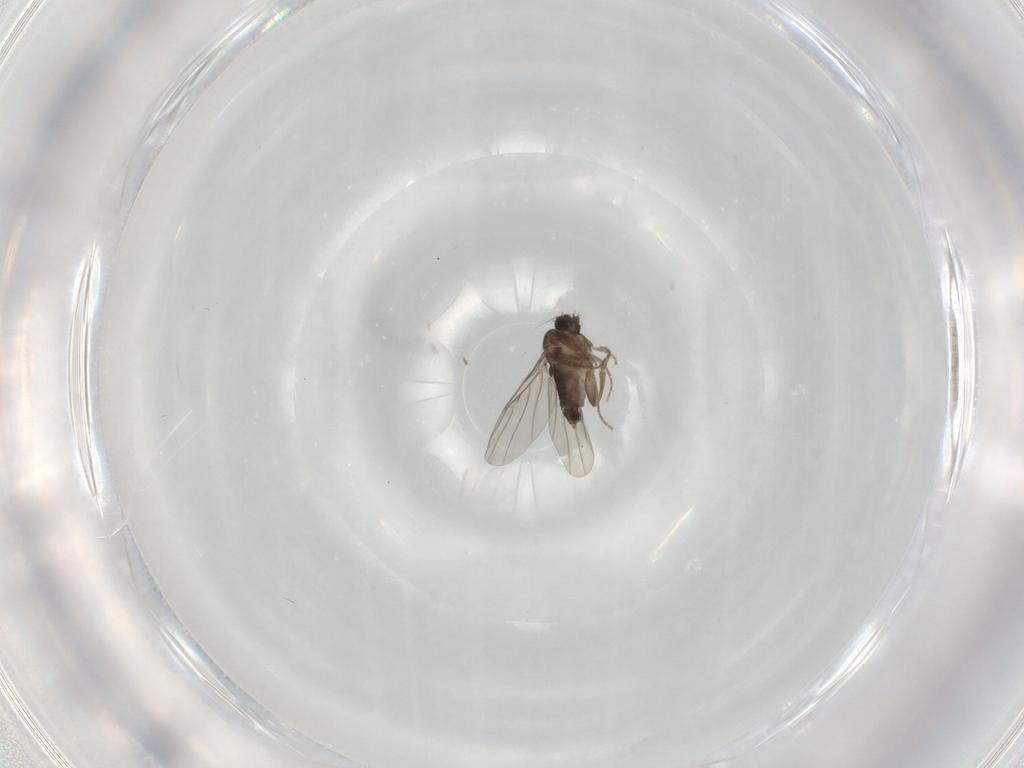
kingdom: Animalia
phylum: Arthropoda
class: Insecta
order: Diptera
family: Phoridae
